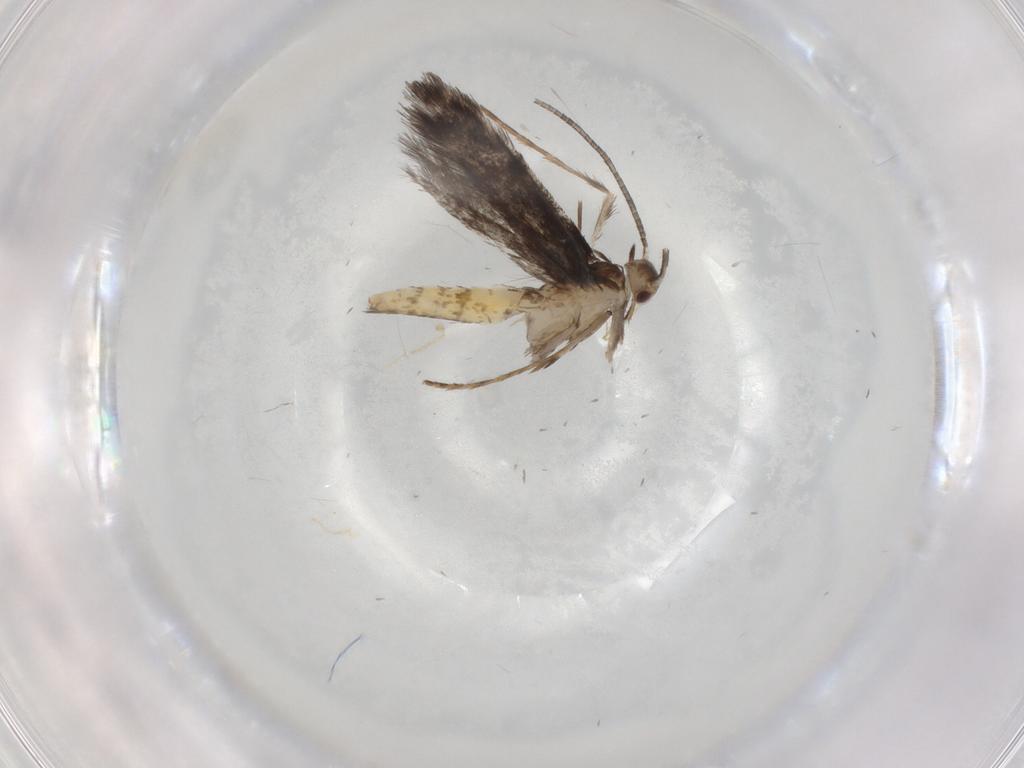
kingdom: Animalia
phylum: Arthropoda
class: Insecta
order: Lepidoptera
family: Gracillariidae
